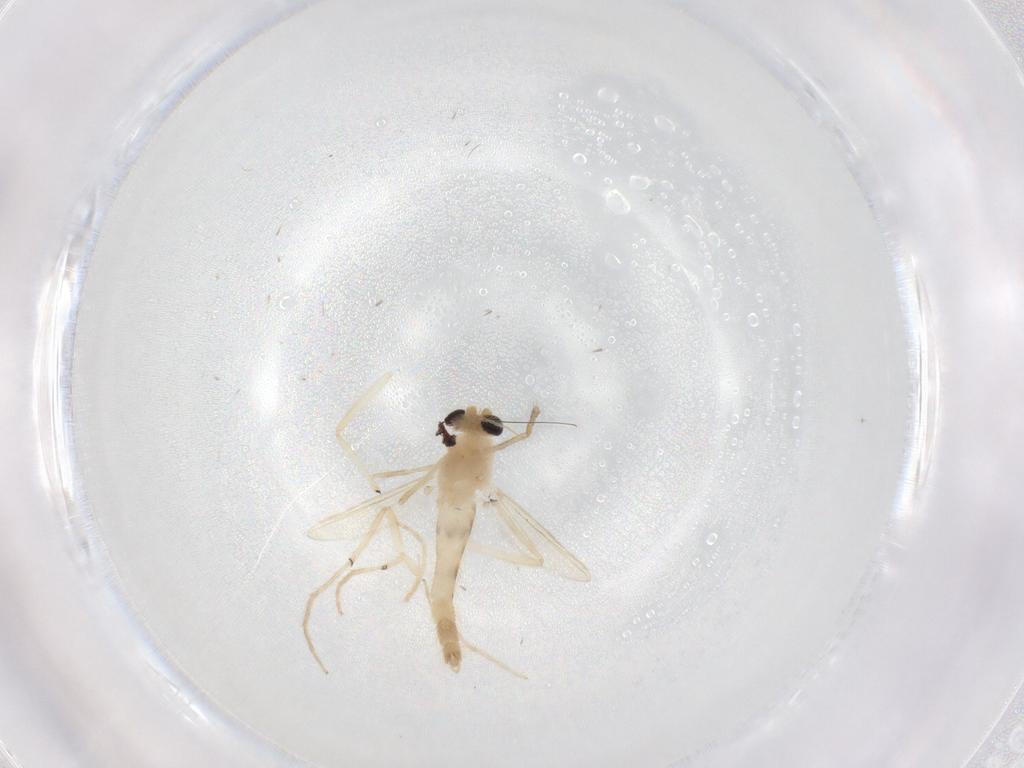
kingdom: Animalia
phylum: Arthropoda
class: Insecta
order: Diptera
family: Chironomidae
